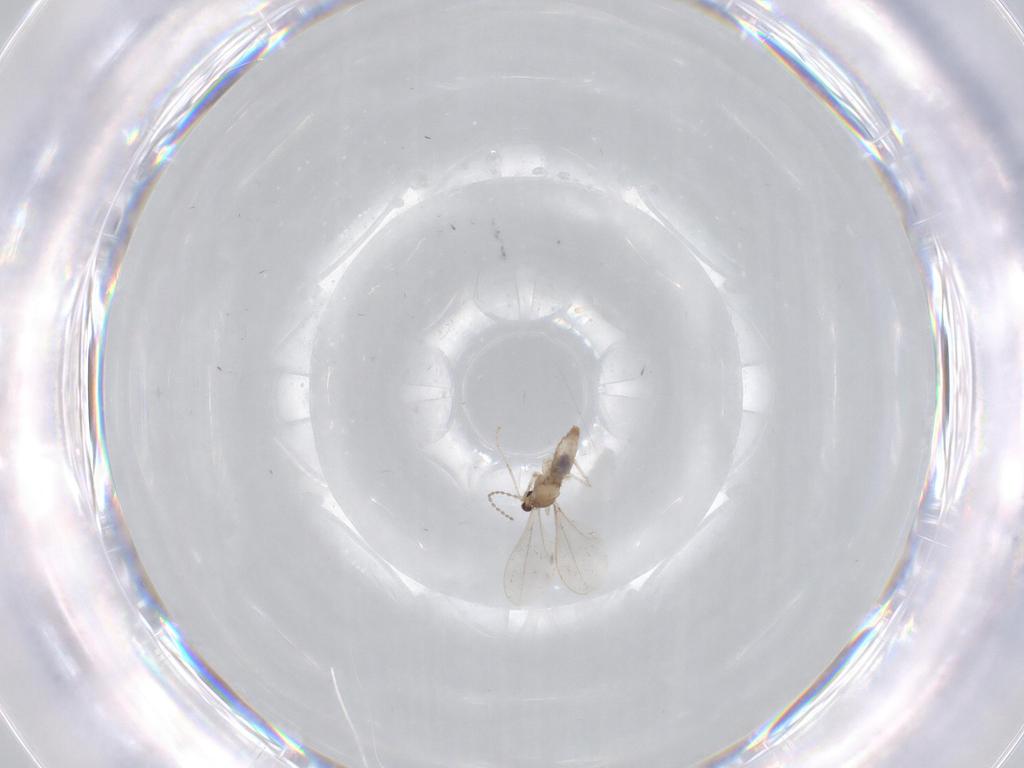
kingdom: Animalia
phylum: Arthropoda
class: Insecta
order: Diptera
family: Cecidomyiidae
